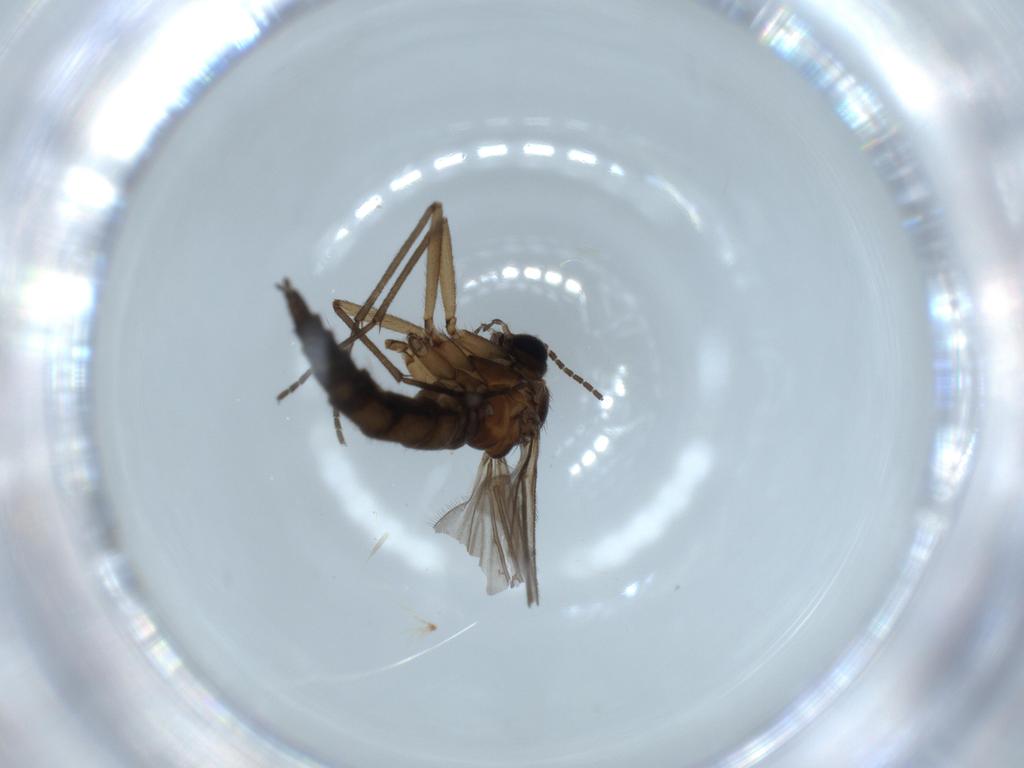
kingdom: Animalia
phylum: Arthropoda
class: Insecta
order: Diptera
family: Sciaridae
